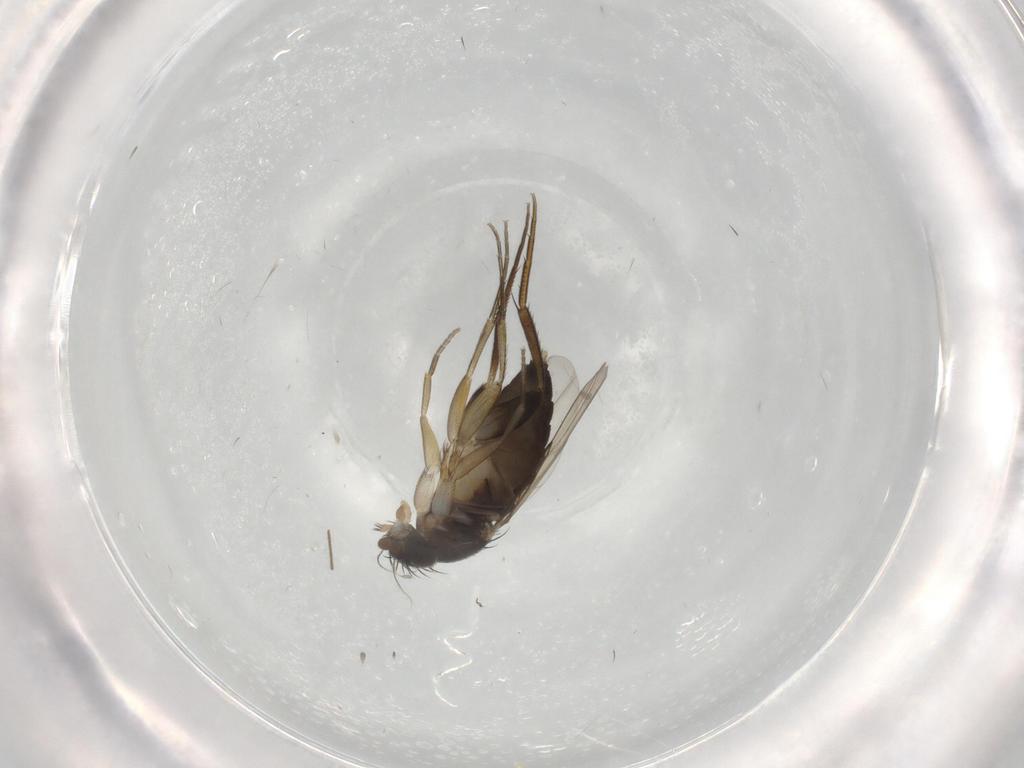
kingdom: Animalia
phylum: Arthropoda
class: Insecta
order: Diptera
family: Phoridae
